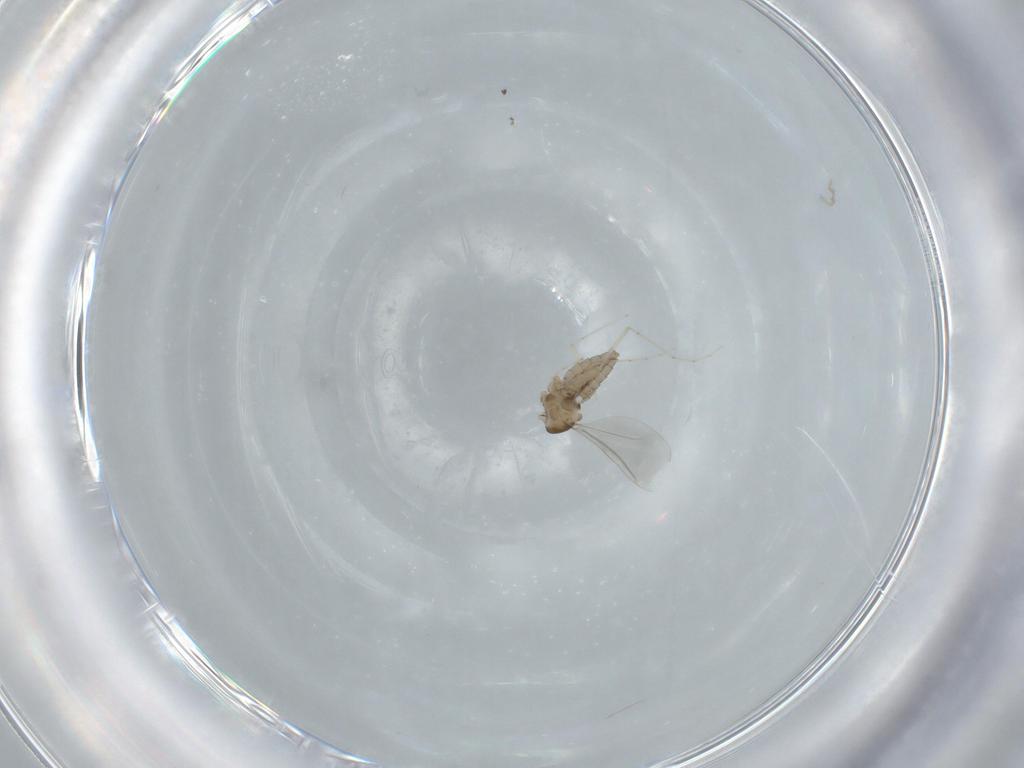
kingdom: Animalia
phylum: Arthropoda
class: Insecta
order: Diptera
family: Cecidomyiidae
